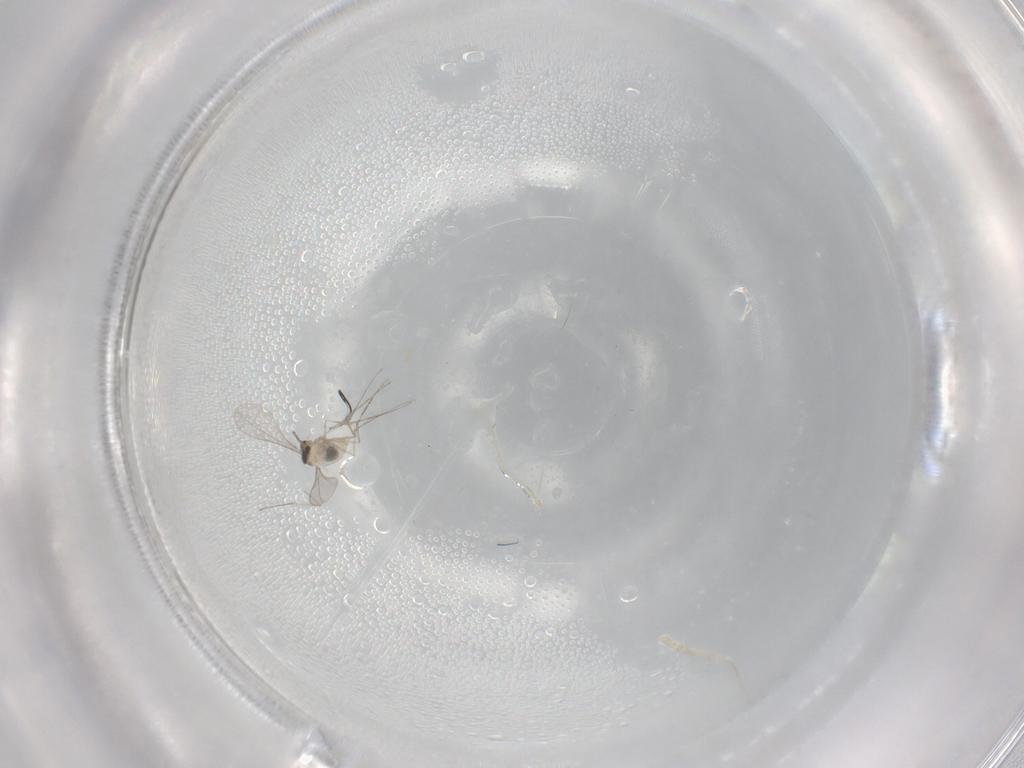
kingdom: Animalia
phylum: Arthropoda
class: Insecta
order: Diptera
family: Cecidomyiidae
